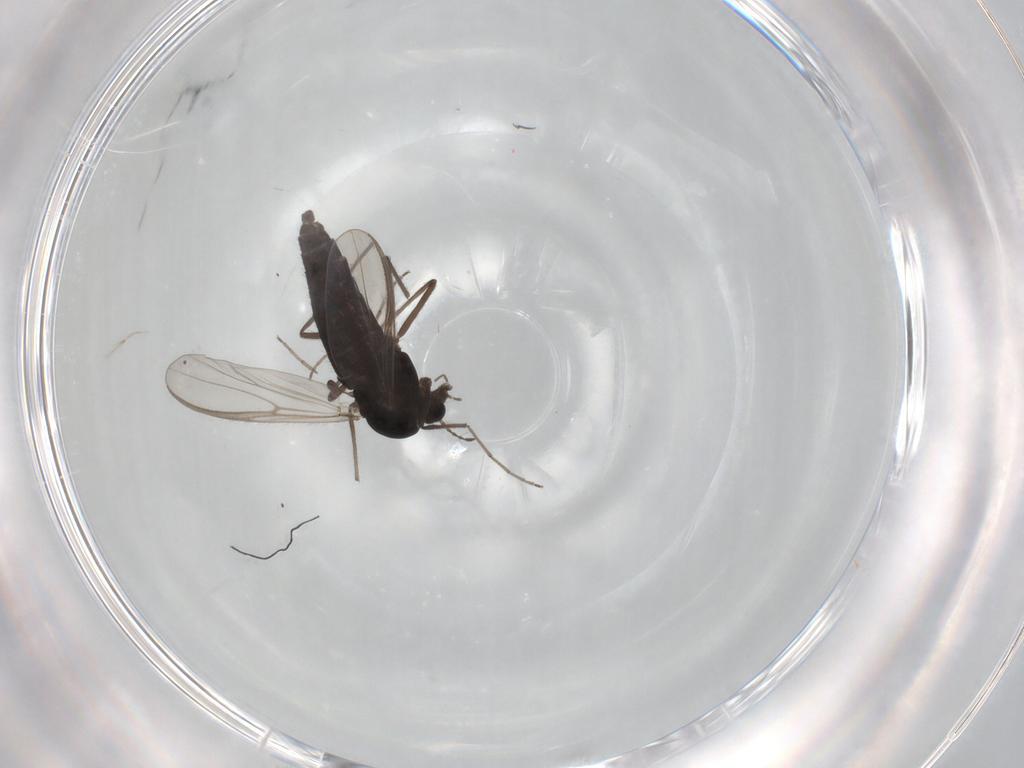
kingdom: Animalia
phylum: Arthropoda
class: Insecta
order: Diptera
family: Chironomidae
